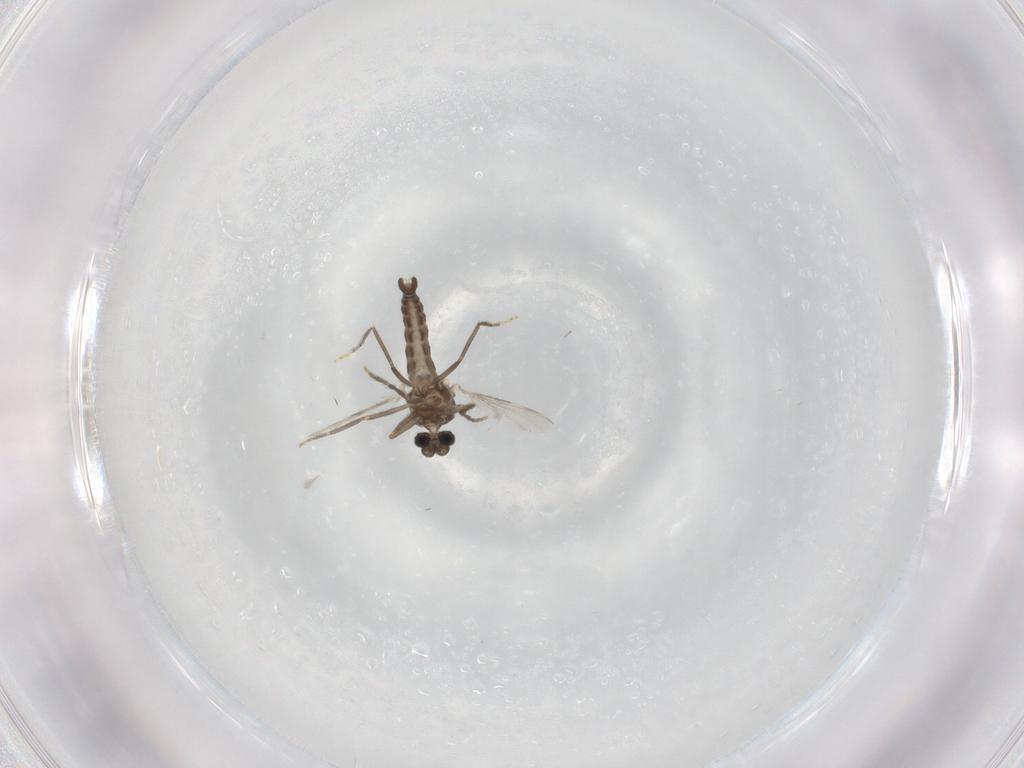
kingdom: Animalia
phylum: Arthropoda
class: Insecta
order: Diptera
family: Ceratopogonidae
